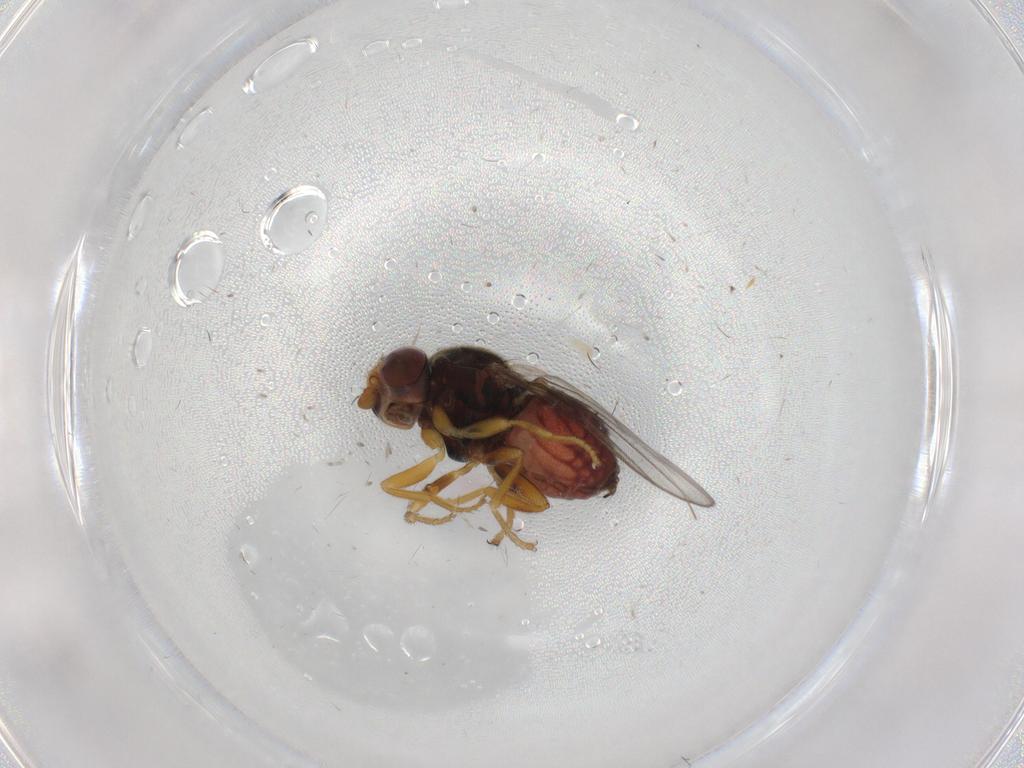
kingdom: Animalia
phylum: Arthropoda
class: Insecta
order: Diptera
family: Chloropidae
